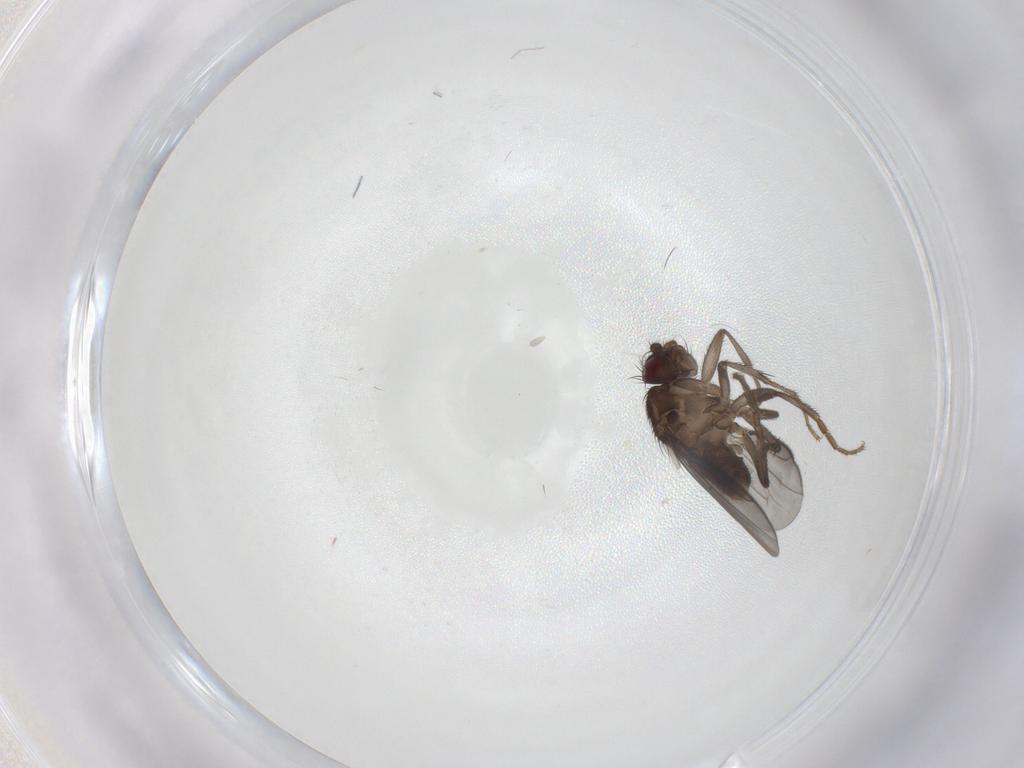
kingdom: Animalia
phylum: Arthropoda
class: Insecta
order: Diptera
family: Sphaeroceridae
